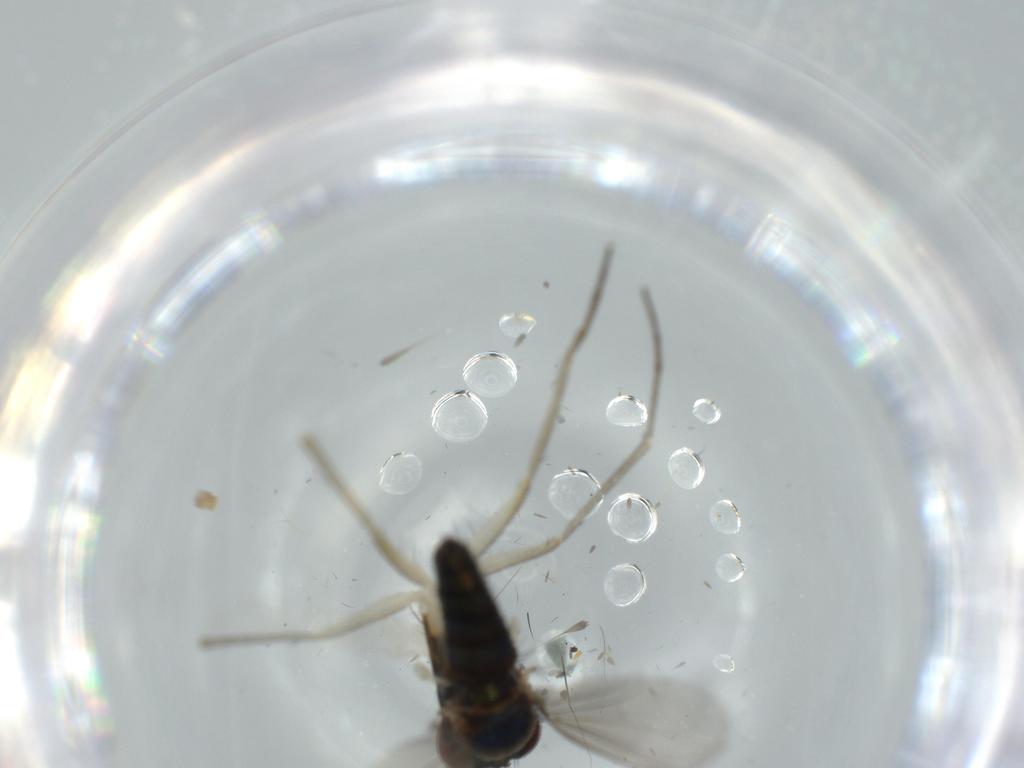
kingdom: Animalia
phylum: Arthropoda
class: Insecta
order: Diptera
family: Dolichopodidae
